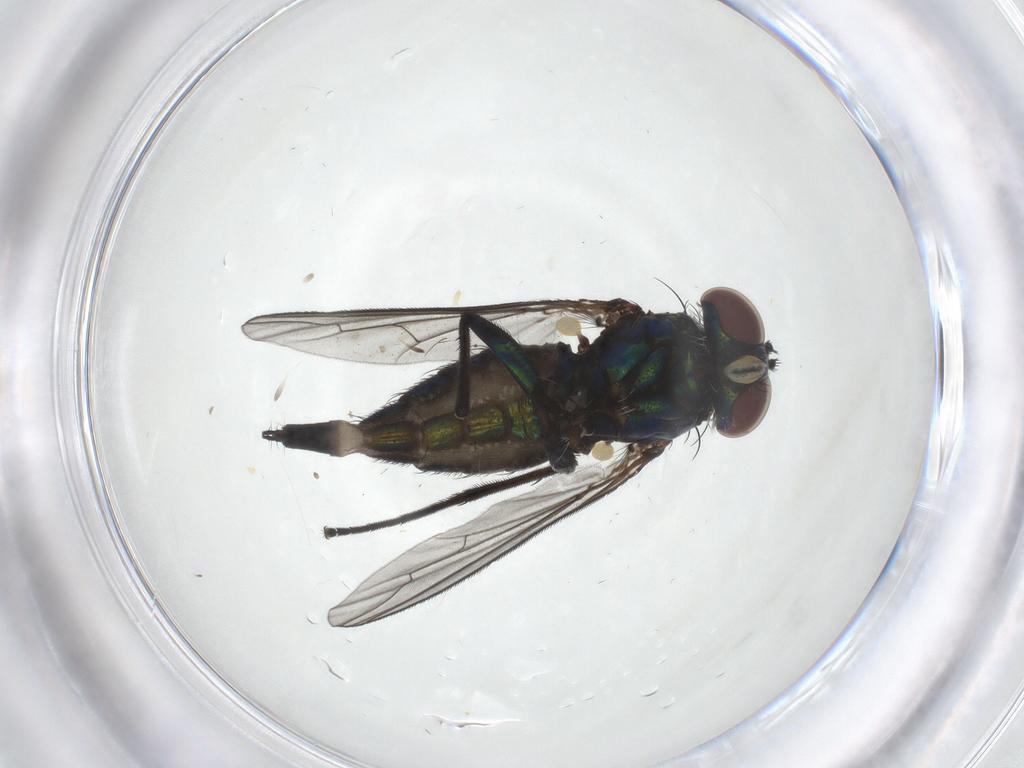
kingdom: Animalia
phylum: Arthropoda
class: Insecta
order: Diptera
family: Dolichopodidae
